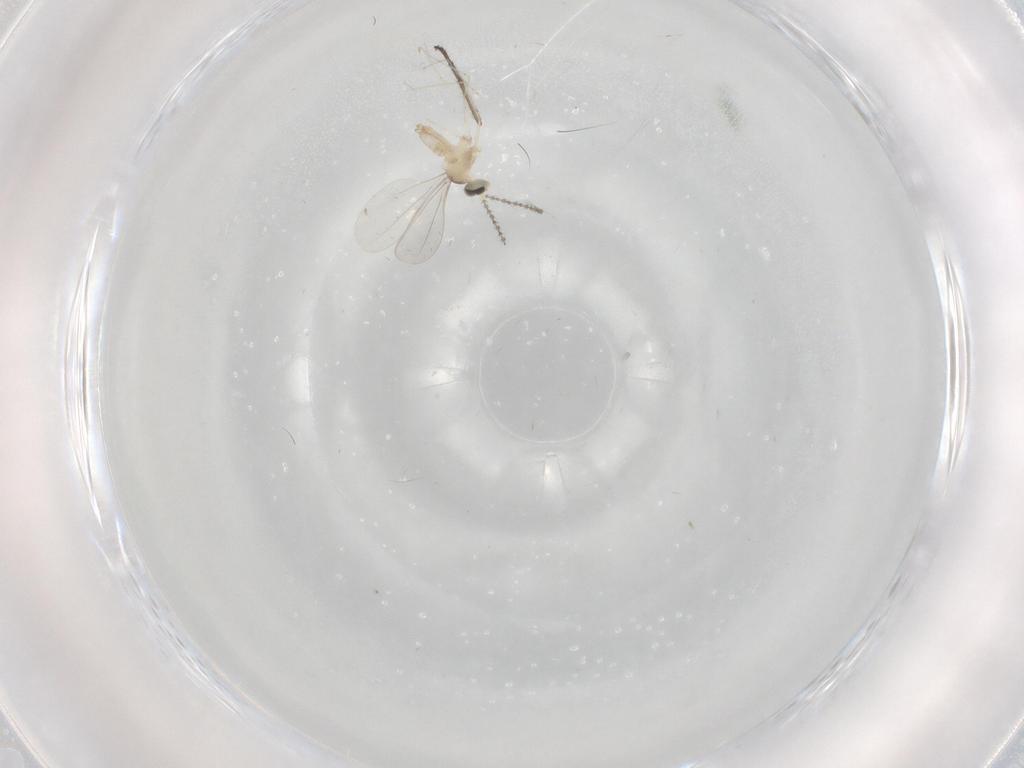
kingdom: Animalia
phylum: Arthropoda
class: Insecta
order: Diptera
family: Chironomidae
